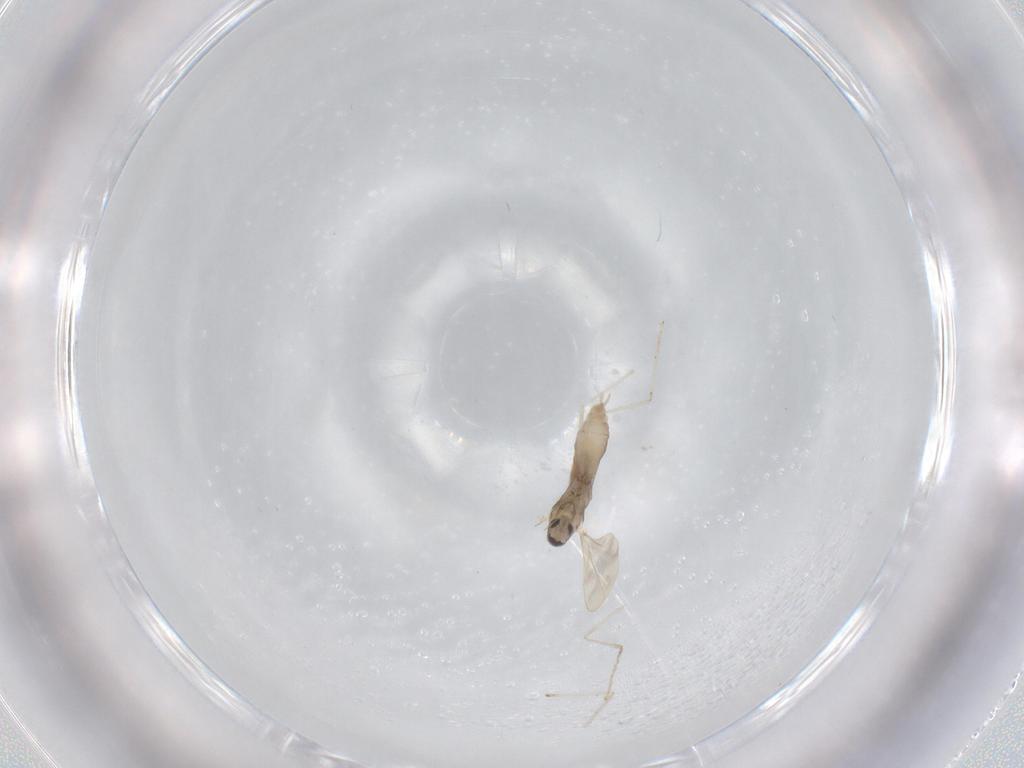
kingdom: Animalia
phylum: Arthropoda
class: Insecta
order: Diptera
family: Cecidomyiidae
